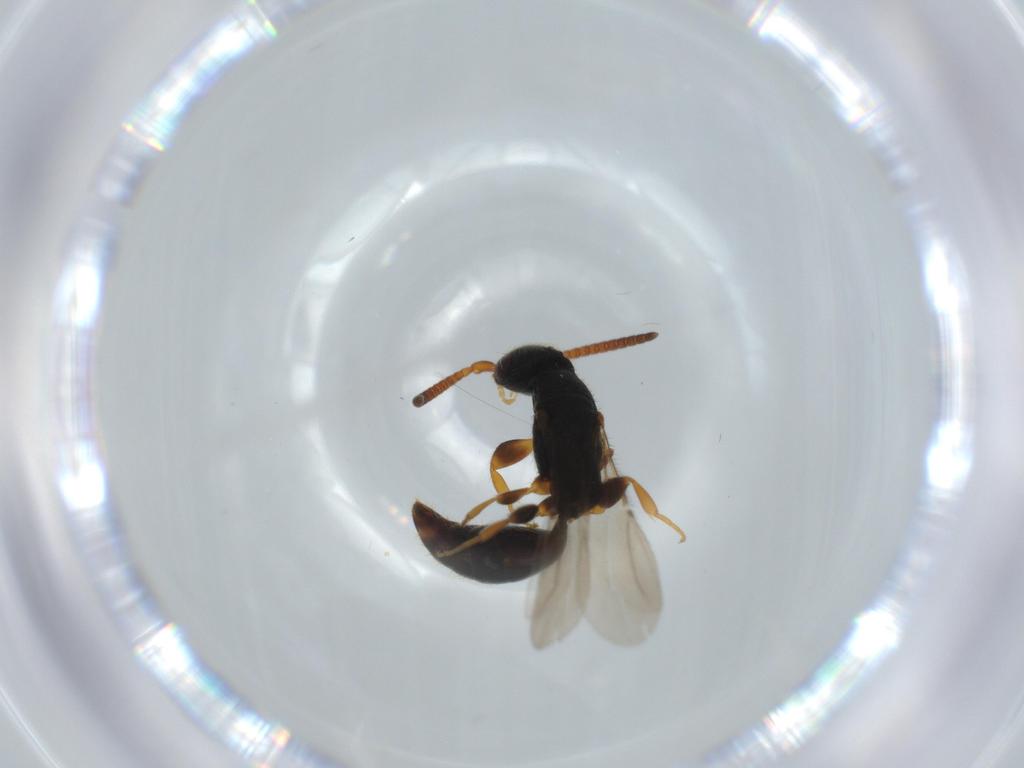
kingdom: Animalia
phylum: Arthropoda
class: Insecta
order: Hymenoptera
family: Bethylidae
